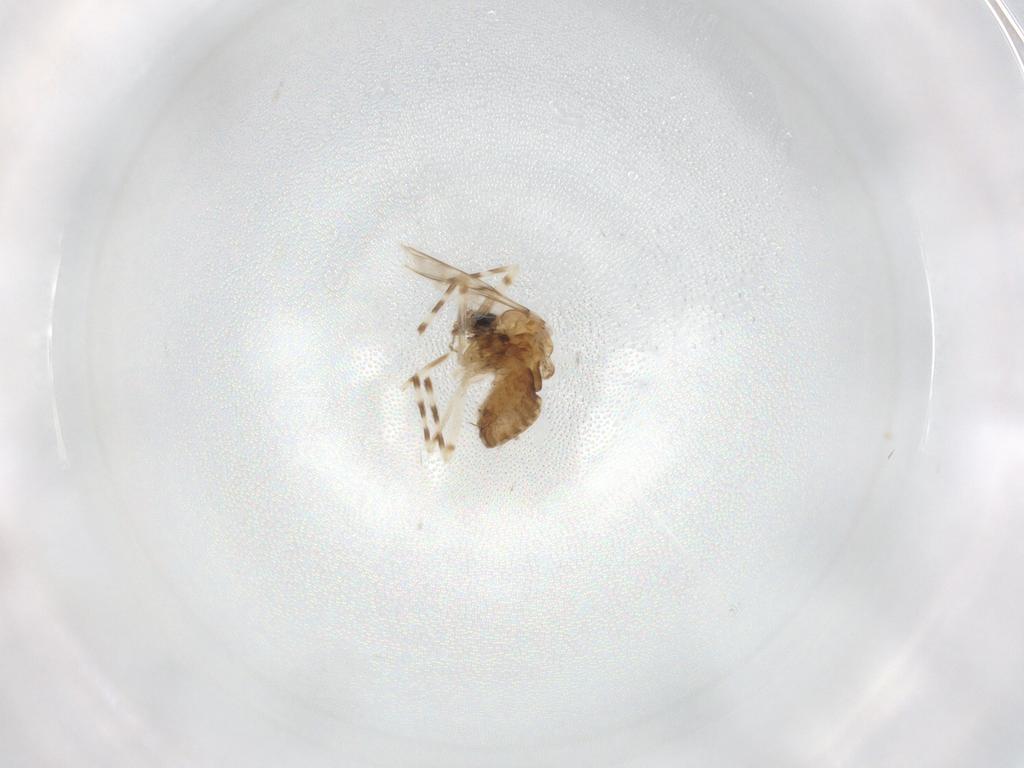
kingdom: Animalia
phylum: Arthropoda
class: Insecta
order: Diptera
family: Chironomidae
